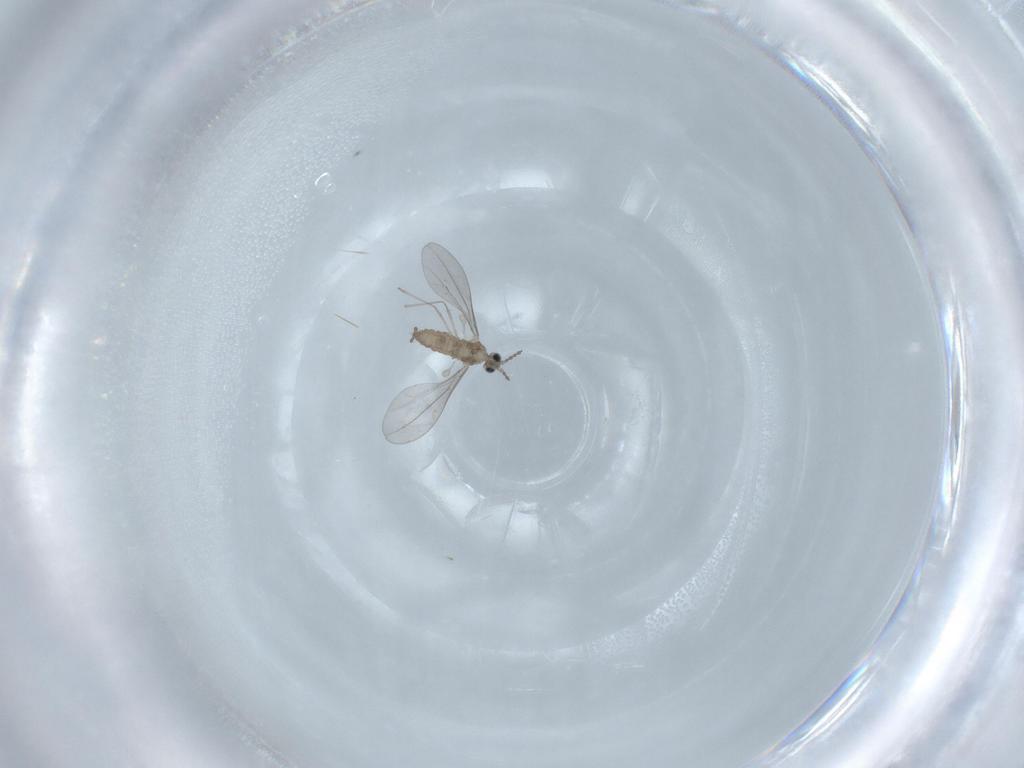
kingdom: Animalia
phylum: Arthropoda
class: Insecta
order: Diptera
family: Cecidomyiidae
